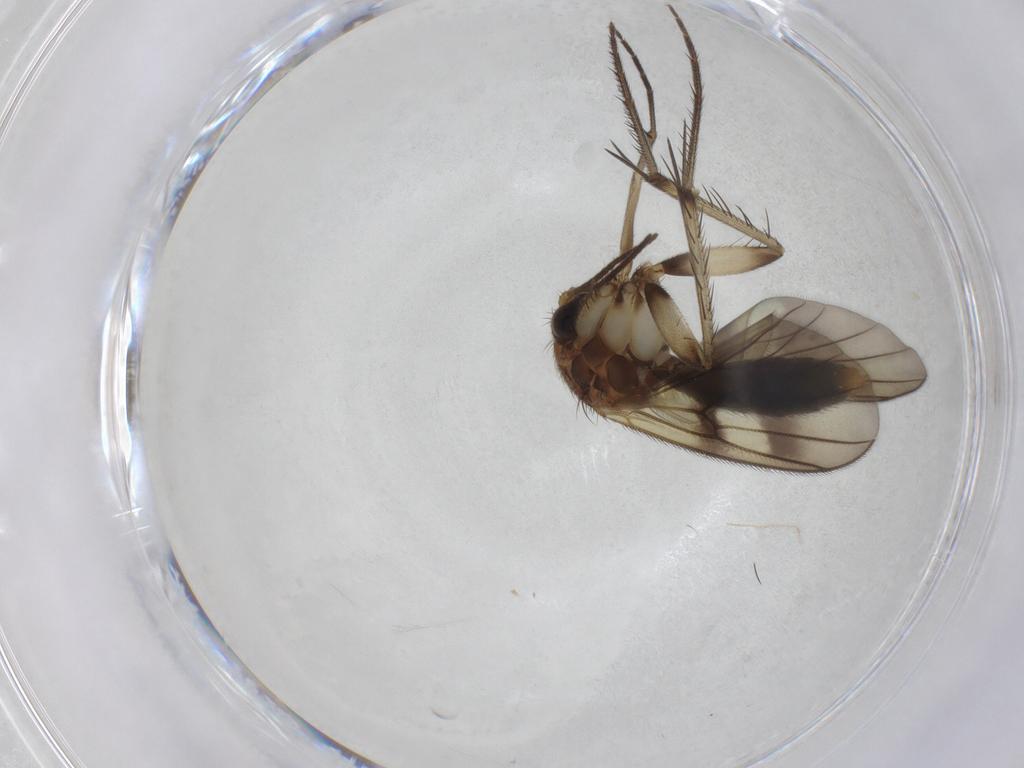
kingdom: Animalia
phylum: Arthropoda
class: Insecta
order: Diptera
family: Mycetophilidae
